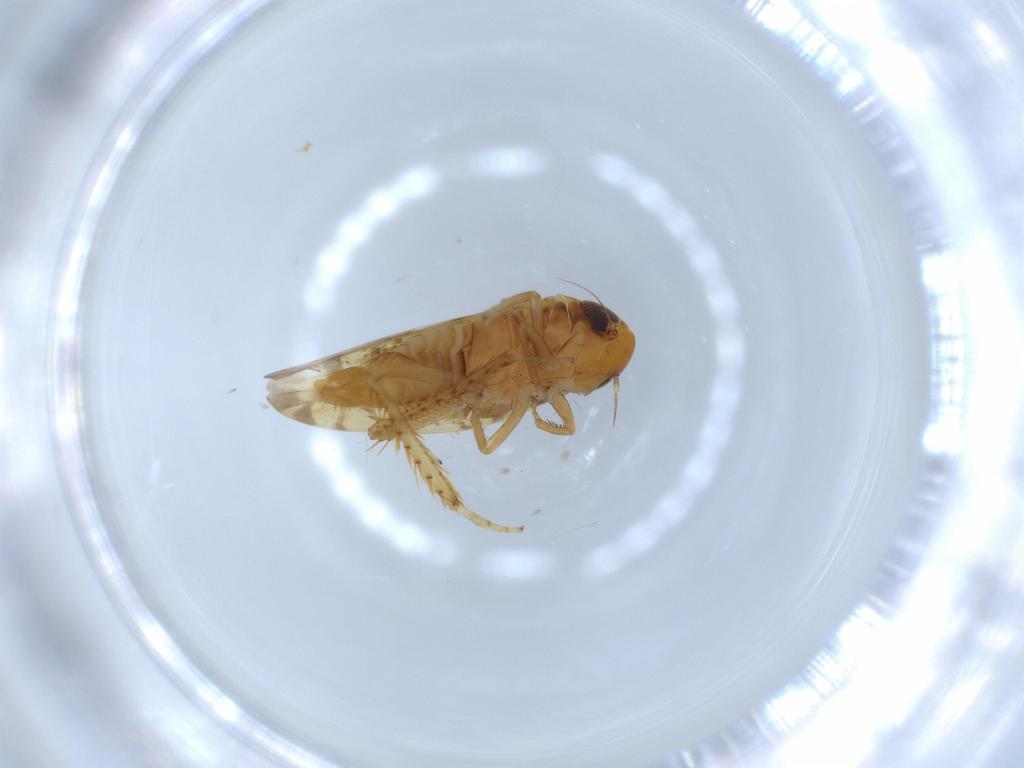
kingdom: Animalia
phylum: Arthropoda
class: Insecta
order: Hemiptera
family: Cicadellidae
